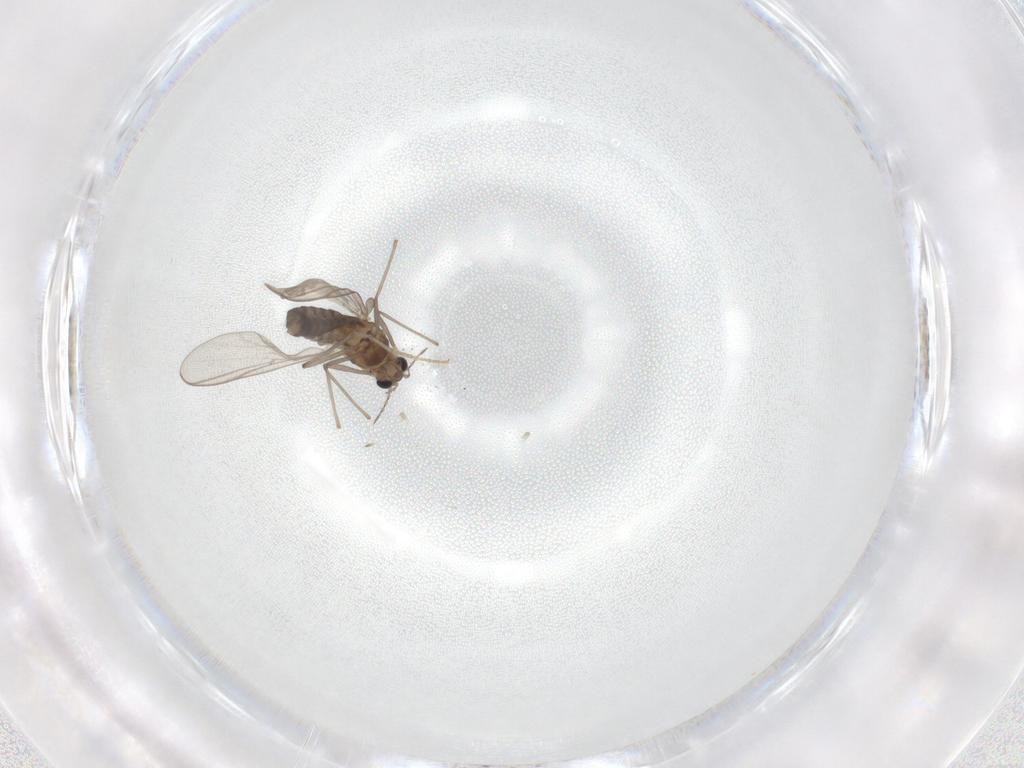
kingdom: Animalia
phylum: Arthropoda
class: Insecta
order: Diptera
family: Chironomidae
